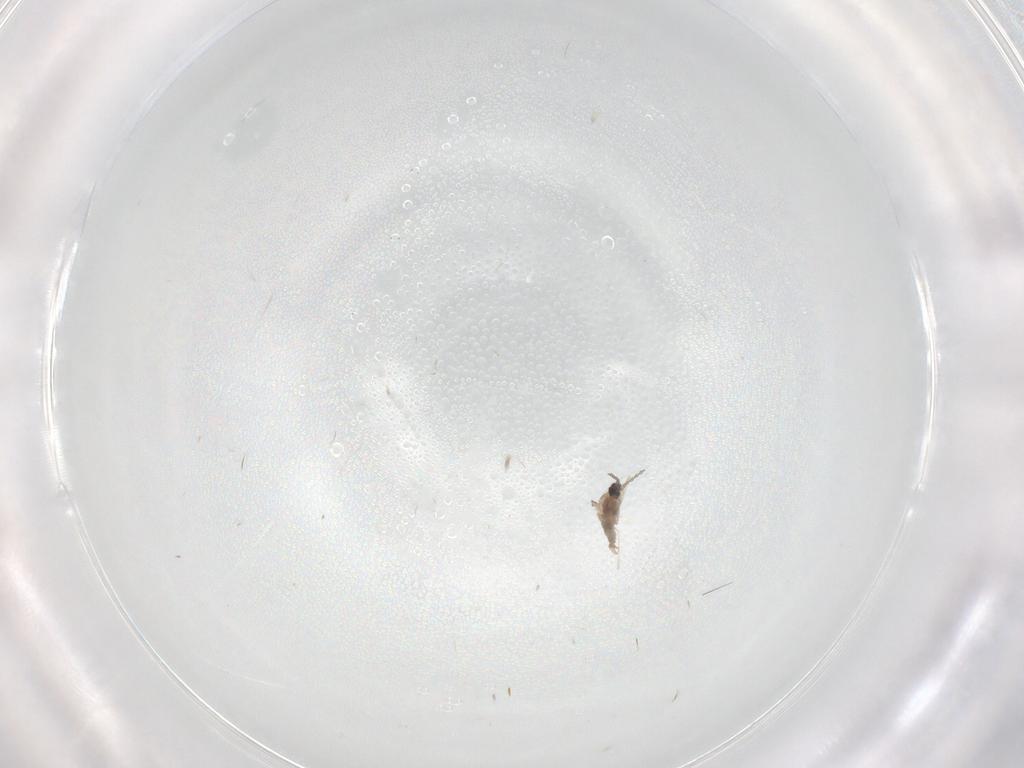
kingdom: Animalia
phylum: Arthropoda
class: Insecta
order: Diptera
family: Cecidomyiidae
